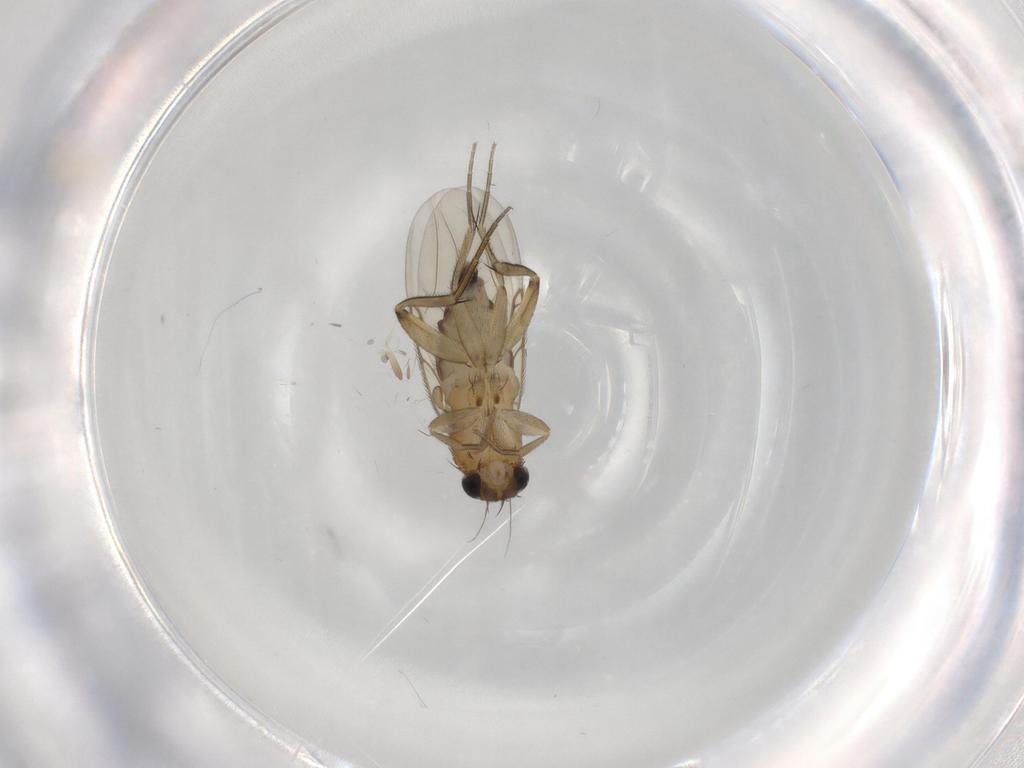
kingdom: Animalia
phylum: Arthropoda
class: Insecta
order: Diptera
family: Phoridae
